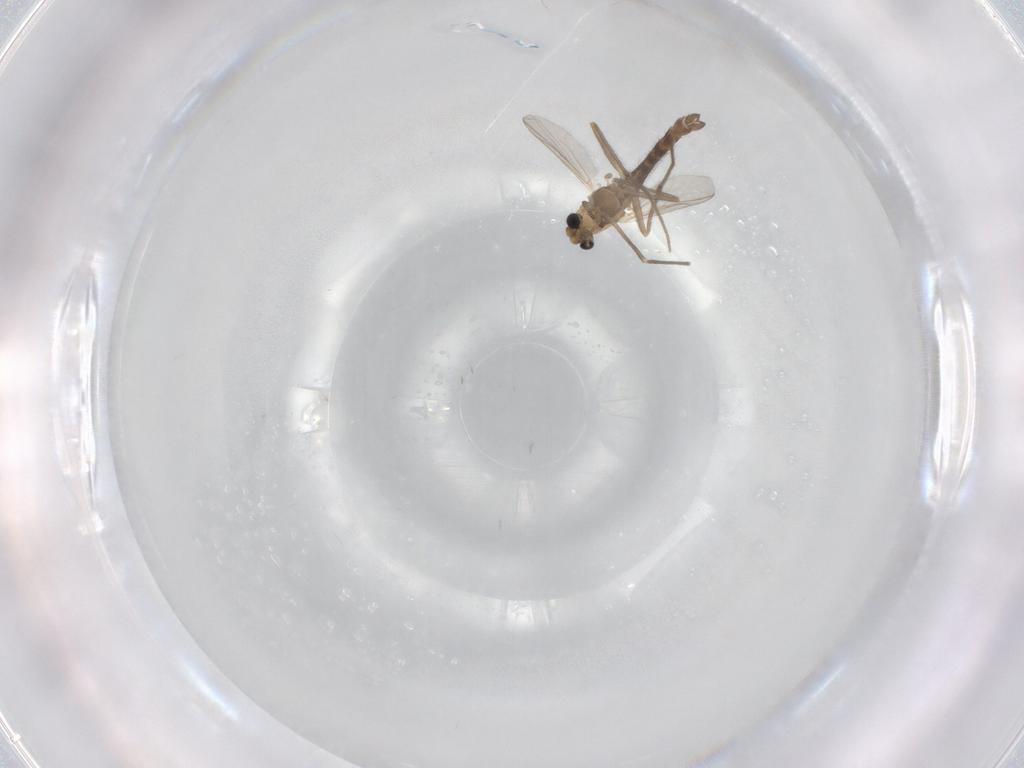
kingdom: Animalia
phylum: Arthropoda
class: Insecta
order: Diptera
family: Chironomidae
